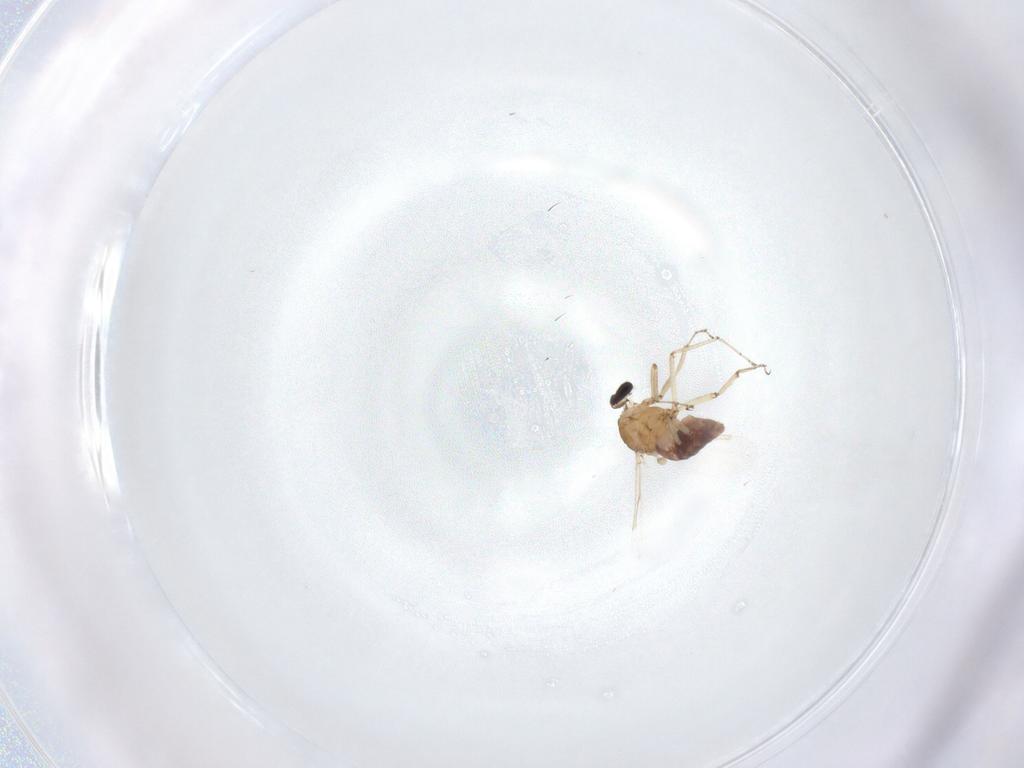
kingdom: Animalia
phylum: Arthropoda
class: Insecta
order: Diptera
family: Ceratopogonidae
